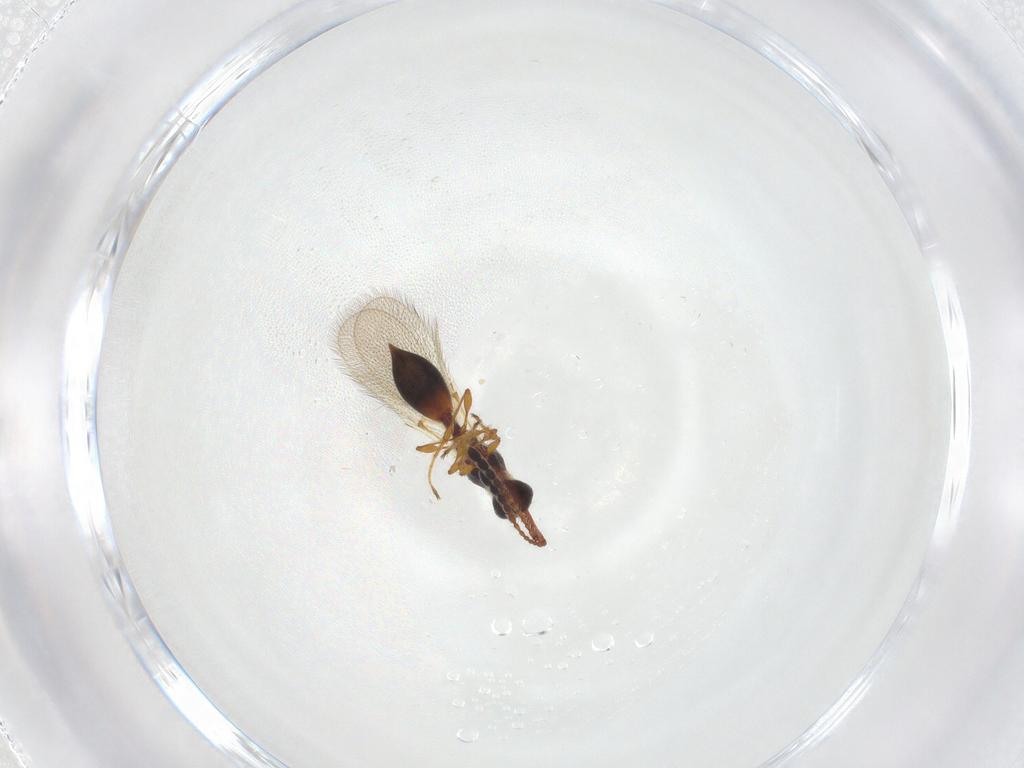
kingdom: Animalia
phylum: Arthropoda
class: Insecta
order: Hymenoptera
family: Diapriidae
